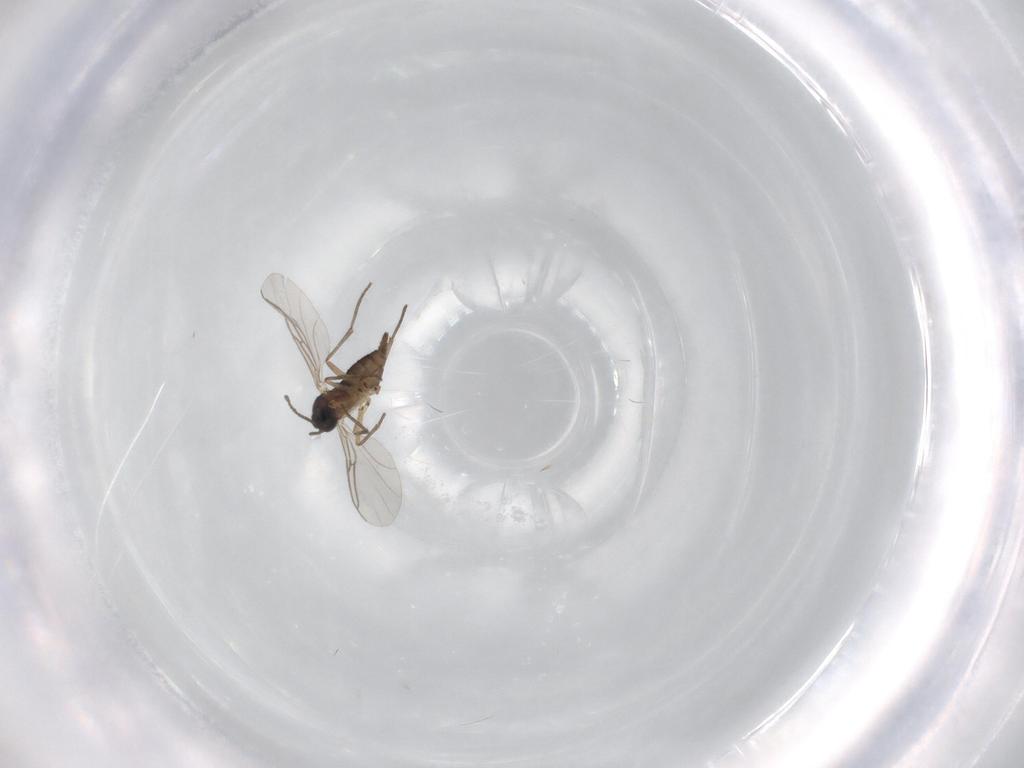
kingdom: Animalia
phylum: Arthropoda
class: Insecta
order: Diptera
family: Sciaridae
